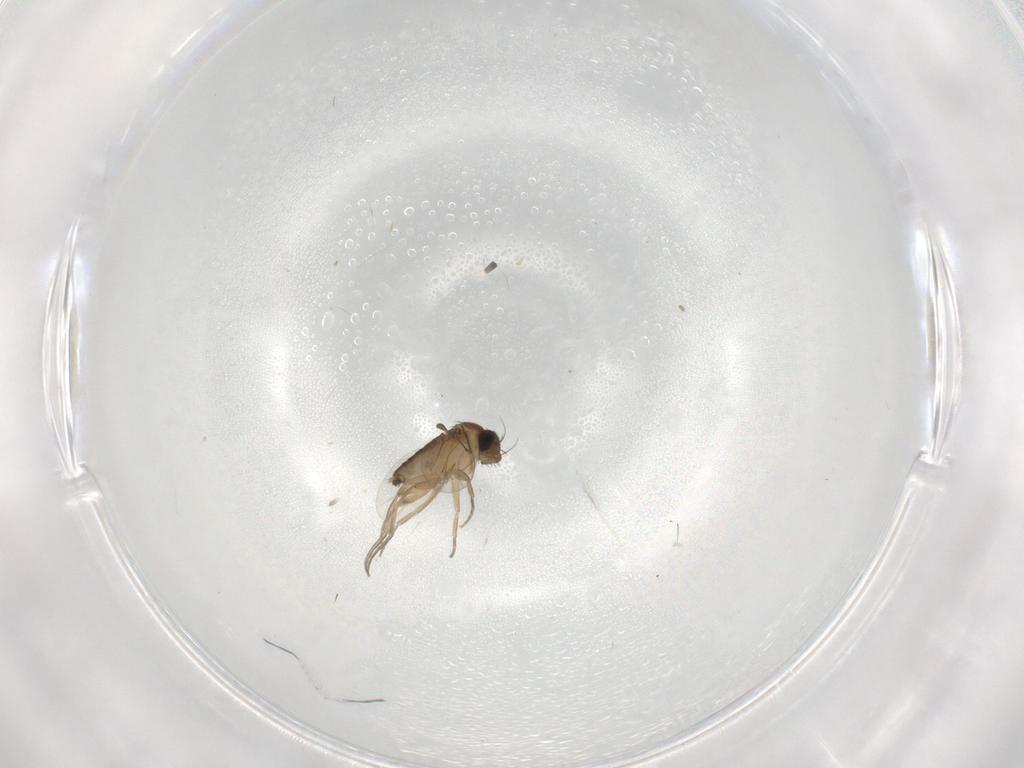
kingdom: Animalia
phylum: Arthropoda
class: Insecta
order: Diptera
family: Phoridae
